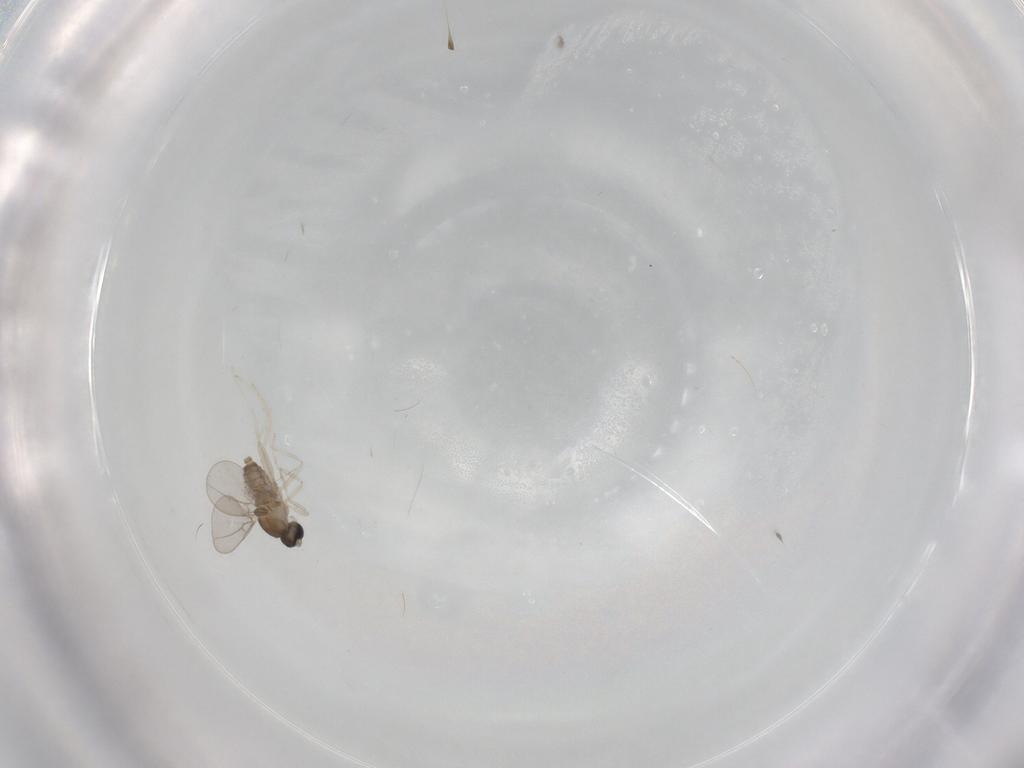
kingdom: Animalia
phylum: Arthropoda
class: Insecta
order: Diptera
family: Cecidomyiidae
